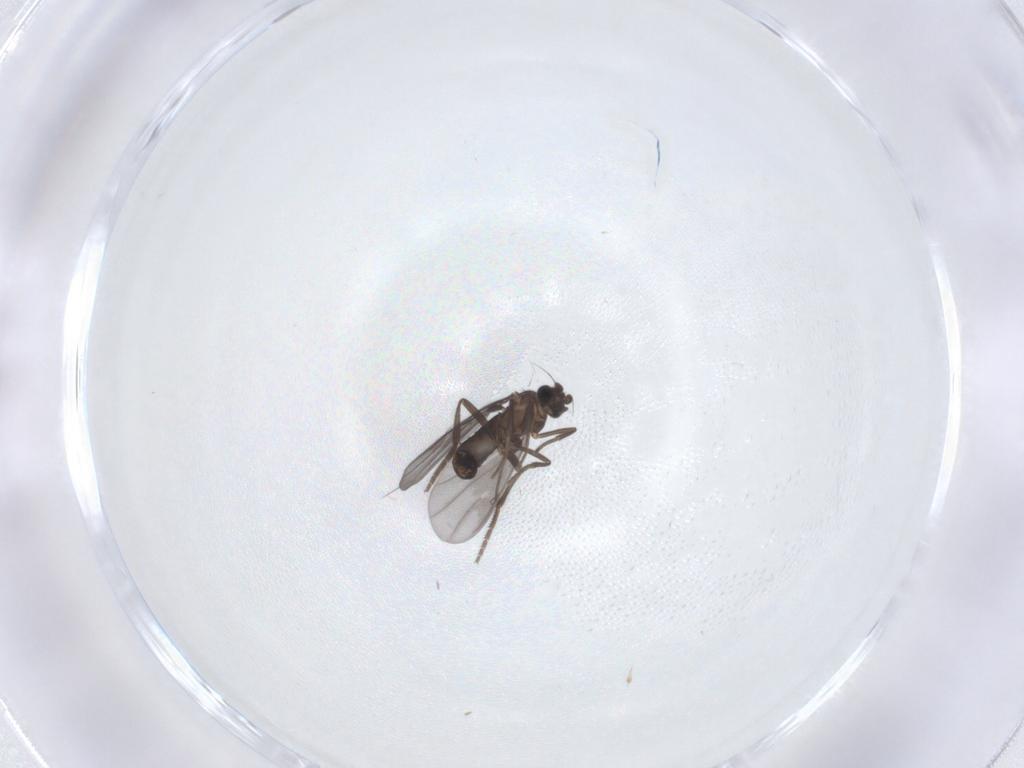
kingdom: Animalia
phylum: Arthropoda
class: Insecta
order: Diptera
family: Phoridae
